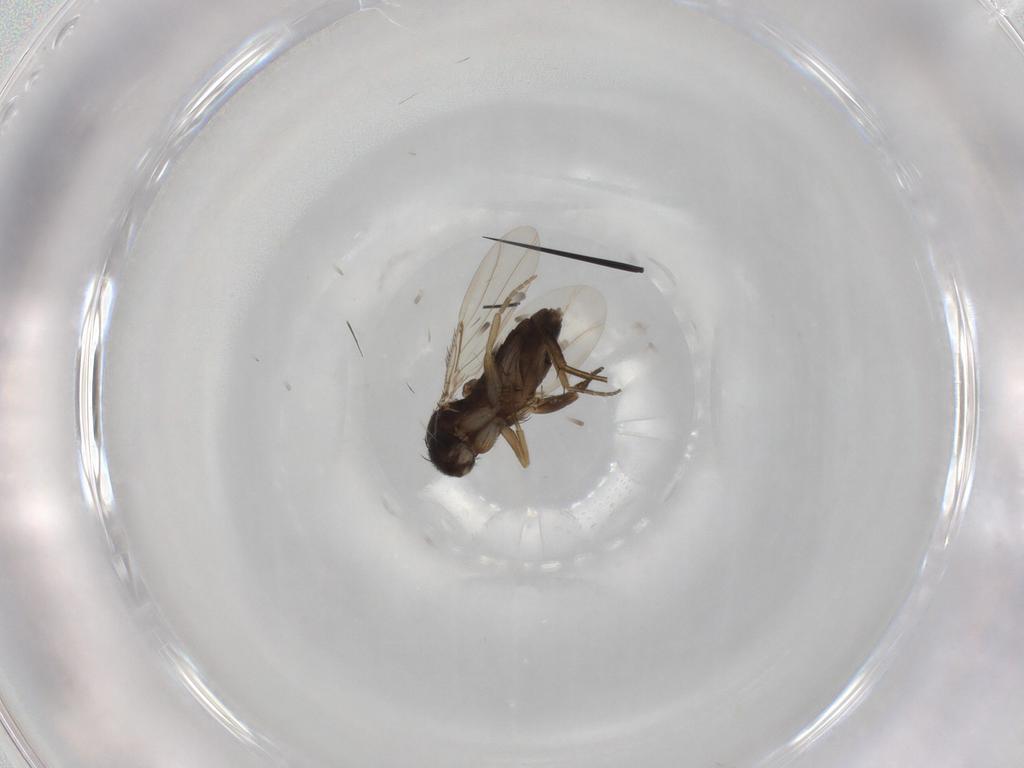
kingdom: Animalia
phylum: Arthropoda
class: Insecta
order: Diptera
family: Phoridae
